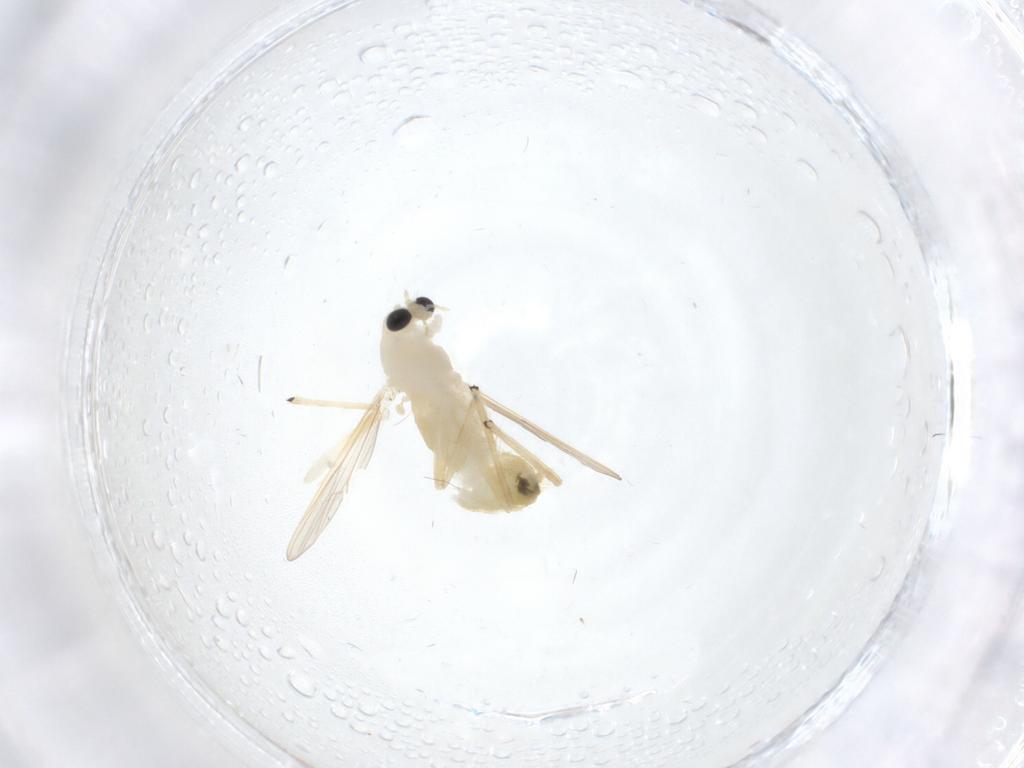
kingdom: Animalia
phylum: Arthropoda
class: Insecta
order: Diptera
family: Chironomidae
